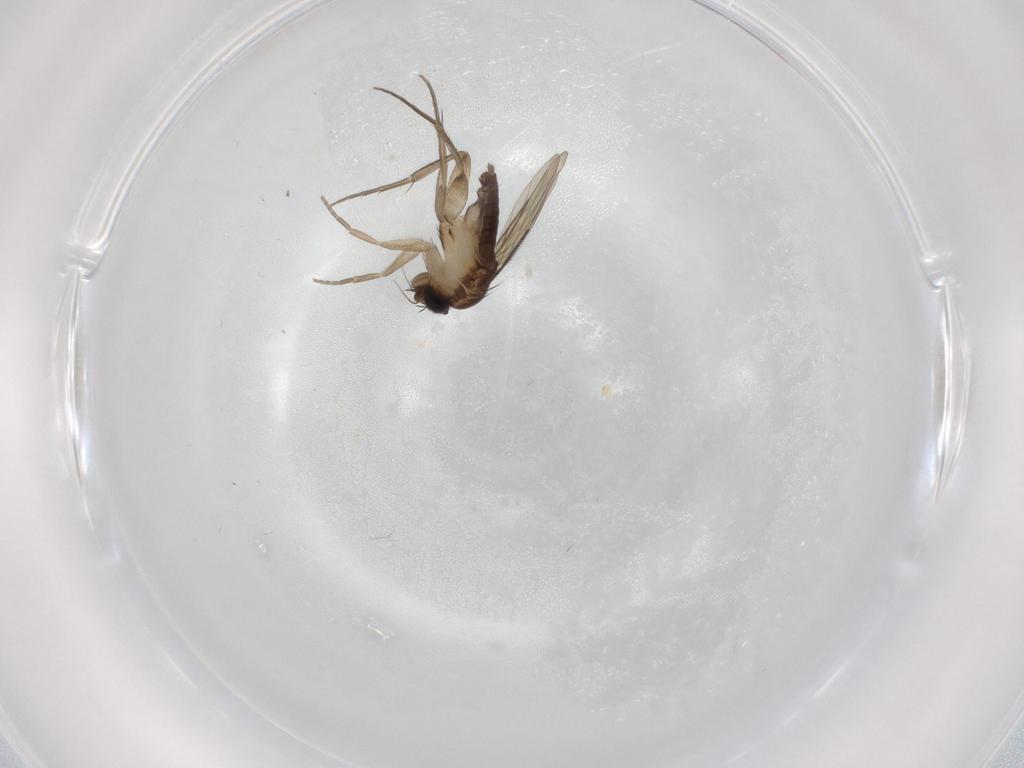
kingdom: Animalia
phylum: Arthropoda
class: Insecta
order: Diptera
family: Phoridae
